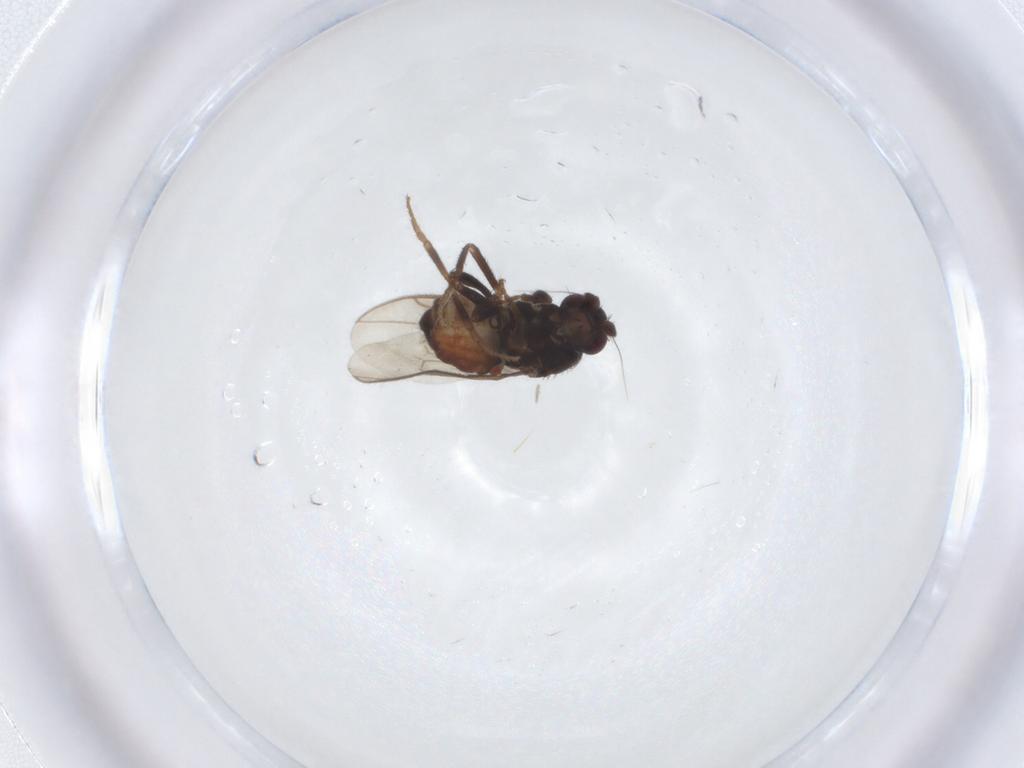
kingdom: Animalia
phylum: Arthropoda
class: Insecta
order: Diptera
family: Sphaeroceridae
